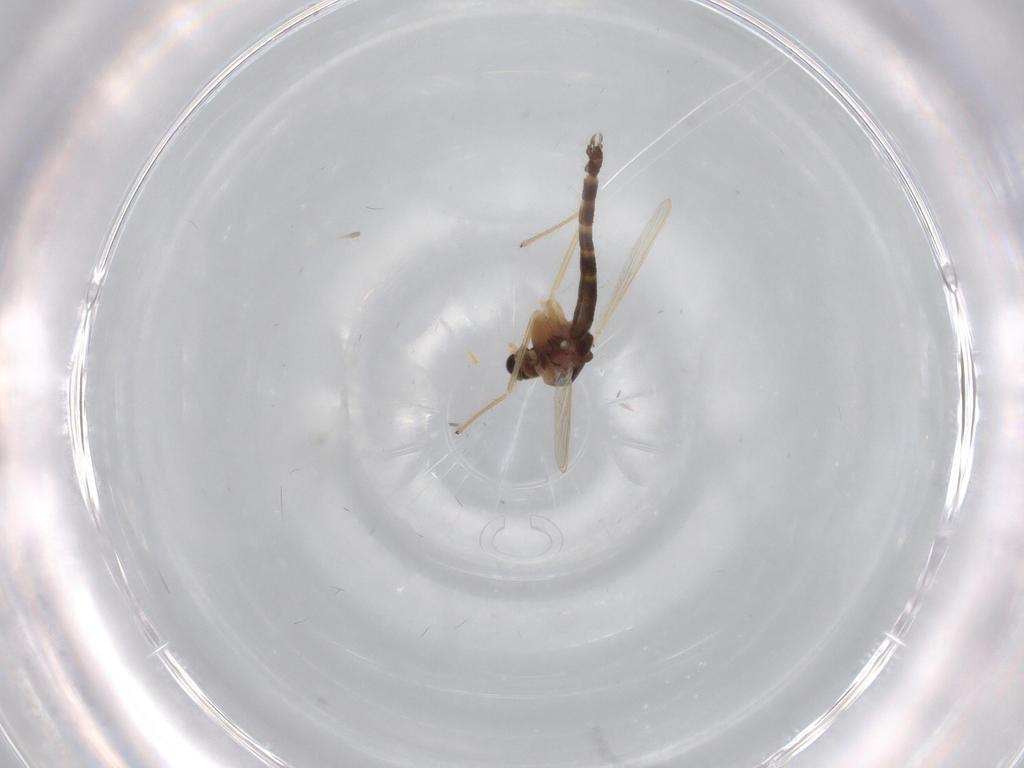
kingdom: Animalia
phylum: Arthropoda
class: Insecta
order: Diptera
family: Chironomidae
